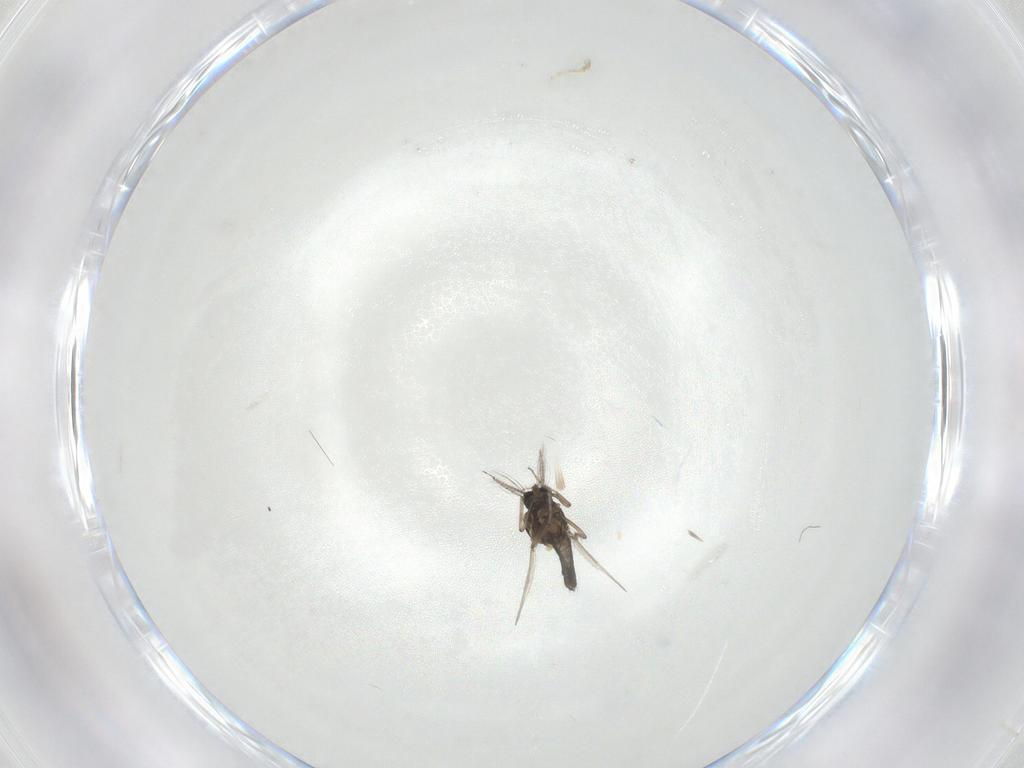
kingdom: Animalia
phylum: Arthropoda
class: Insecta
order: Diptera
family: Ceratopogonidae
